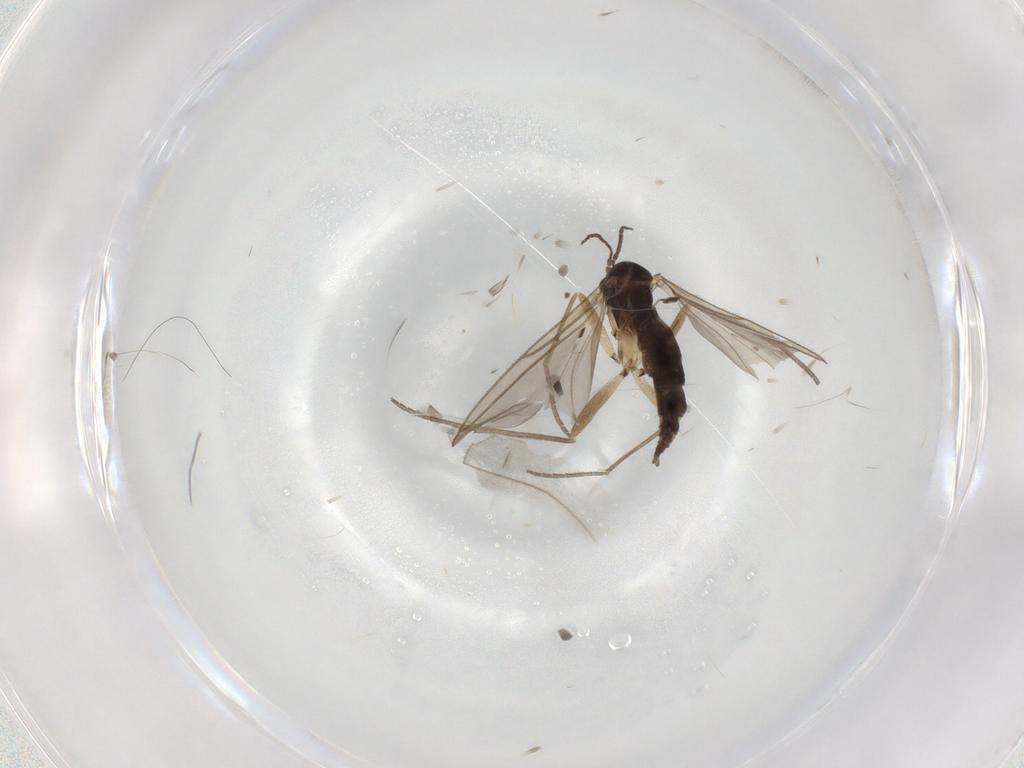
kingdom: Animalia
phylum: Arthropoda
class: Insecta
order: Diptera
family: Sciaridae
